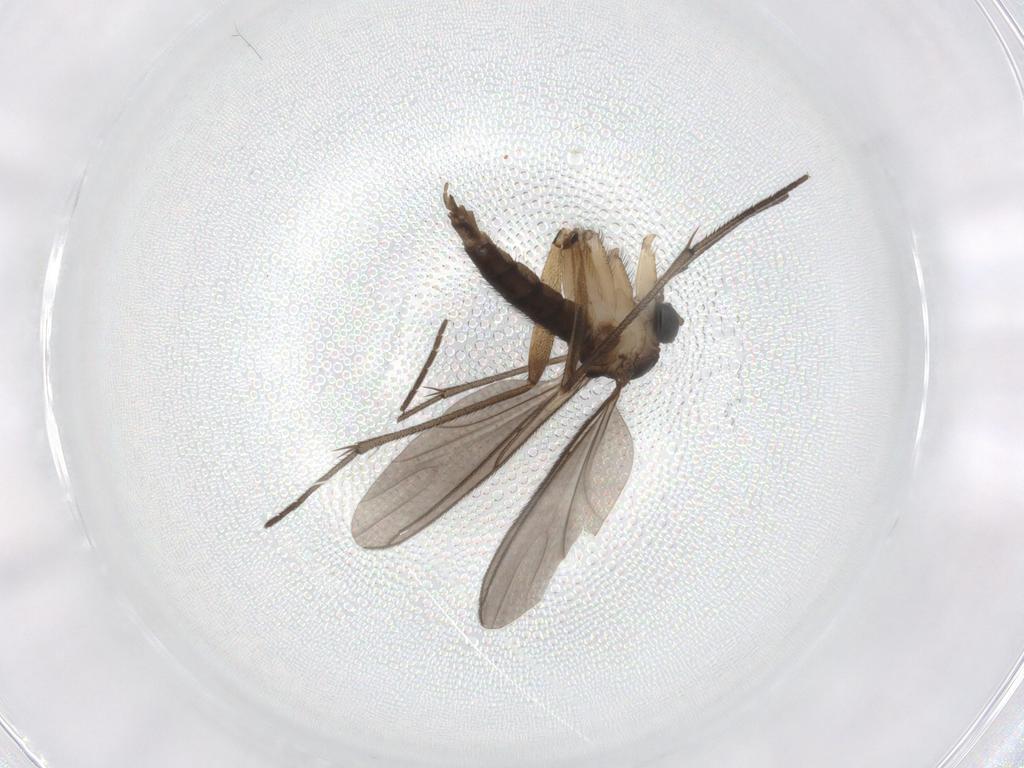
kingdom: Animalia
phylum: Arthropoda
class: Insecta
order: Diptera
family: Sciaridae
